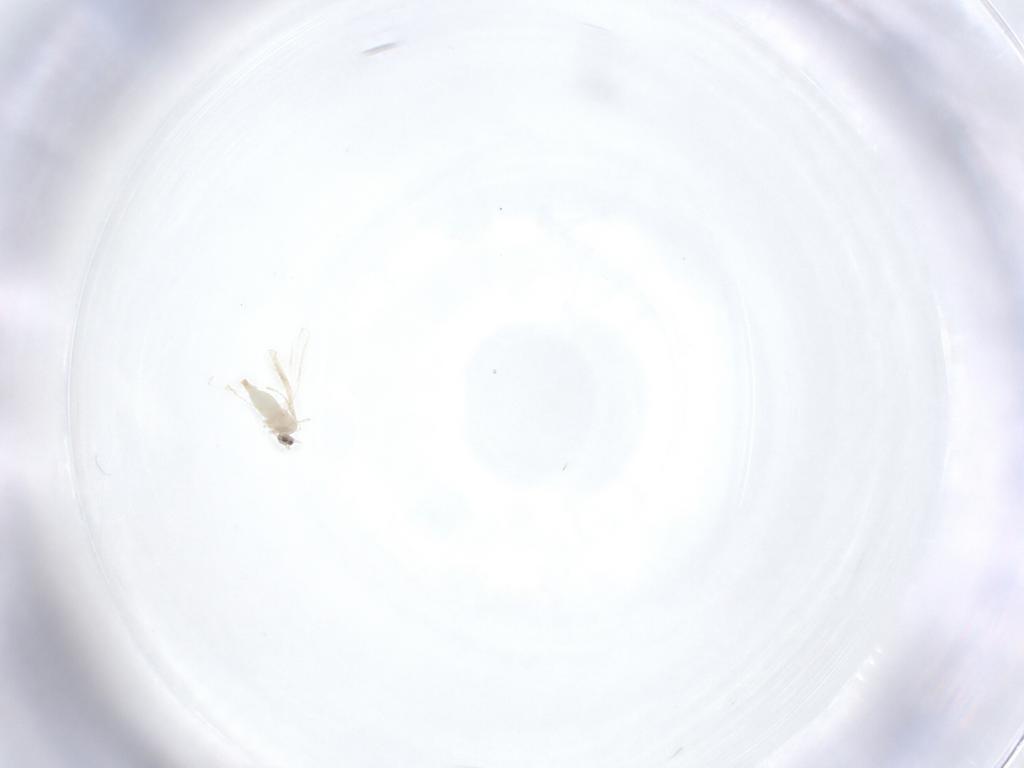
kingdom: Animalia
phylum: Arthropoda
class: Insecta
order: Diptera
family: Cecidomyiidae
